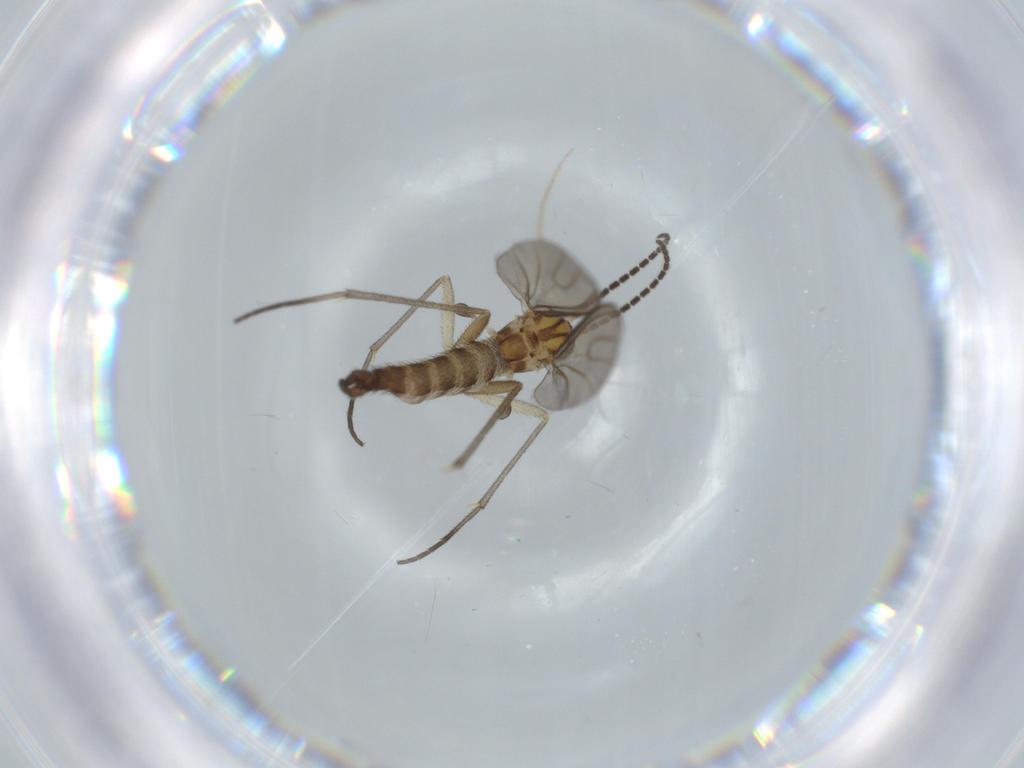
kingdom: Animalia
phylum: Arthropoda
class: Insecta
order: Diptera
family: Sciaridae
